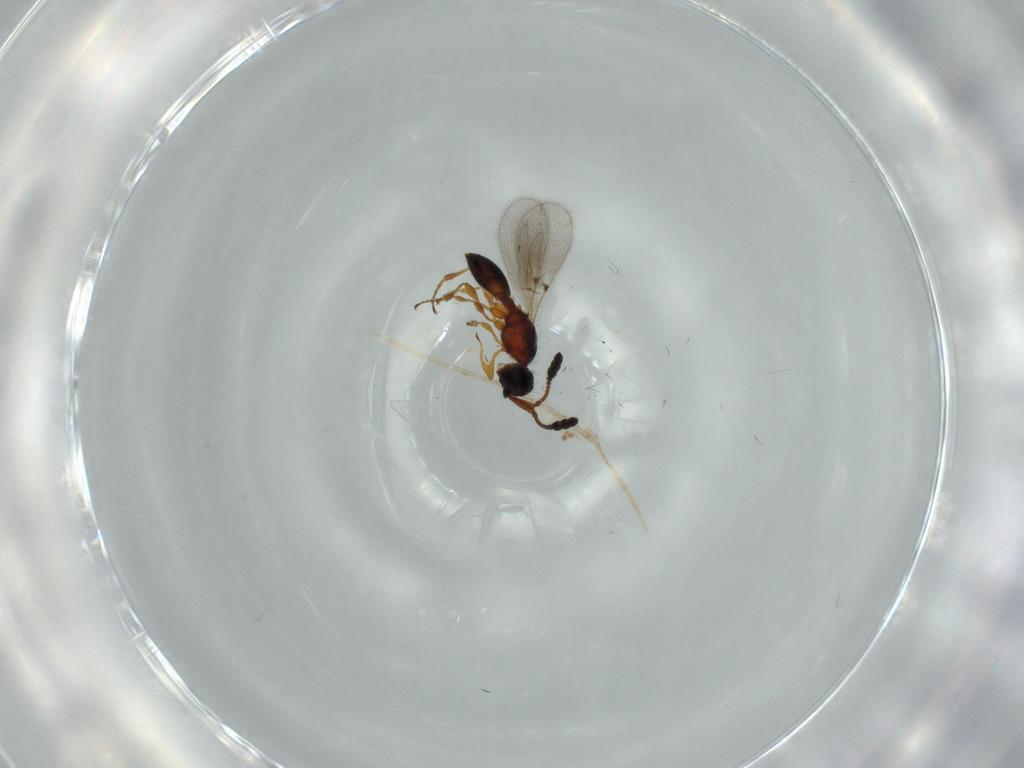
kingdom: Animalia
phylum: Arthropoda
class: Insecta
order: Hymenoptera
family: Diapriidae
